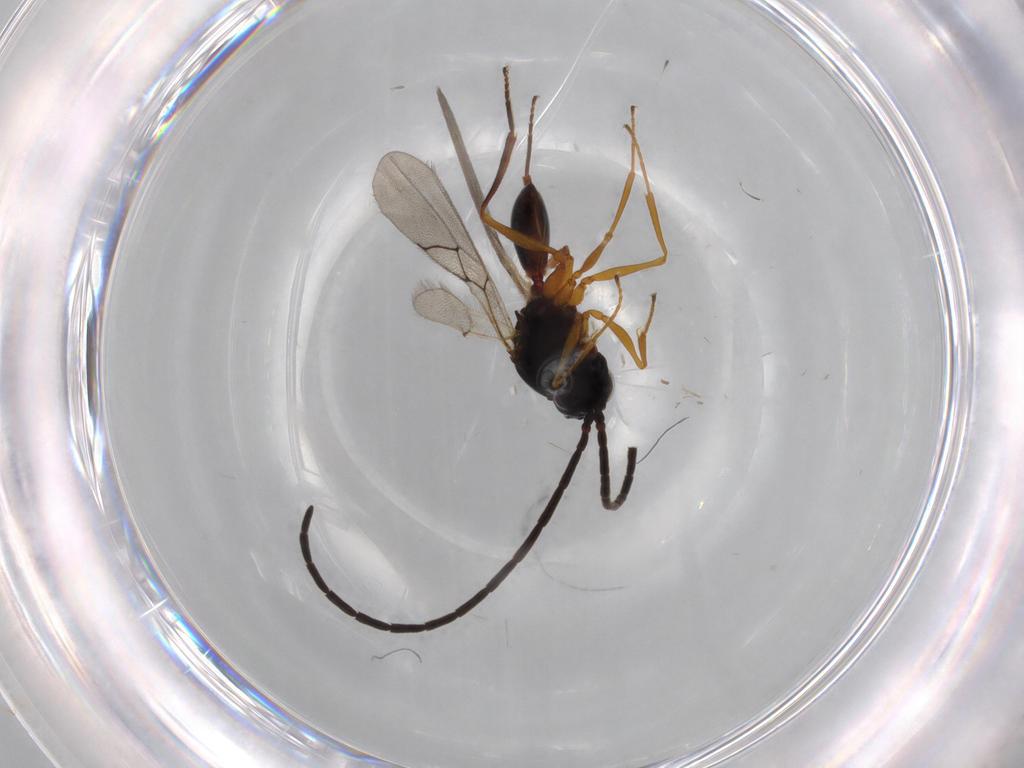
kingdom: Animalia
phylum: Arthropoda
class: Insecta
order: Hymenoptera
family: Figitidae
